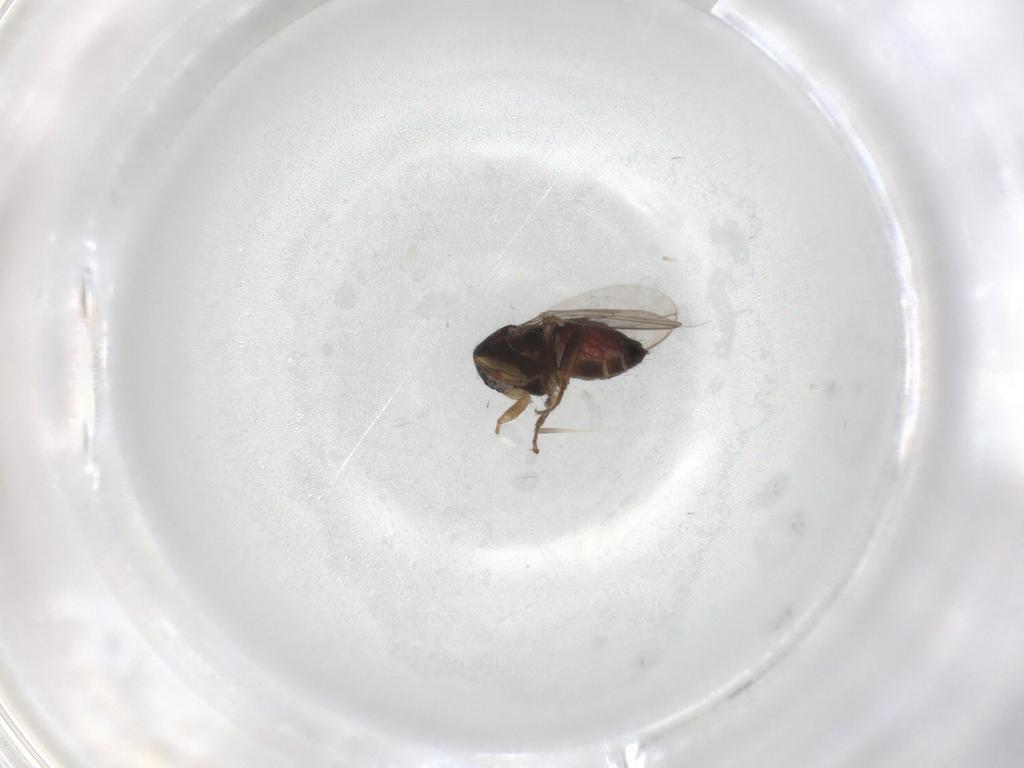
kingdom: Animalia
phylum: Arthropoda
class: Insecta
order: Diptera
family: Sphaeroceridae
